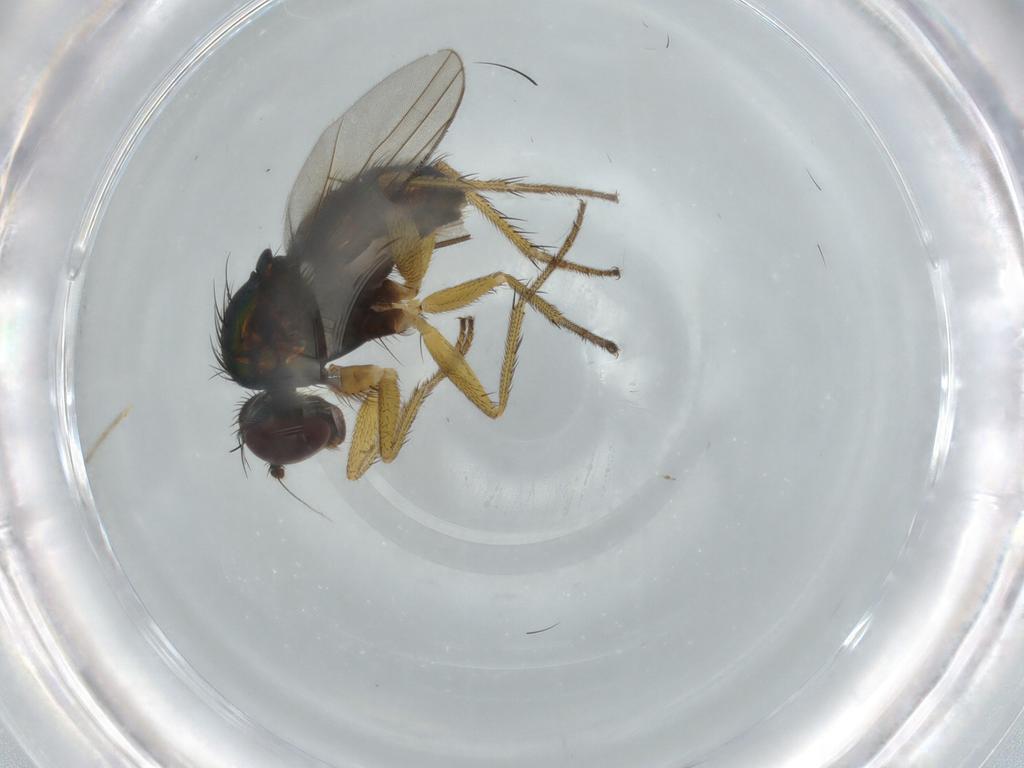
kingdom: Animalia
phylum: Arthropoda
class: Insecta
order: Diptera
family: Dolichopodidae
